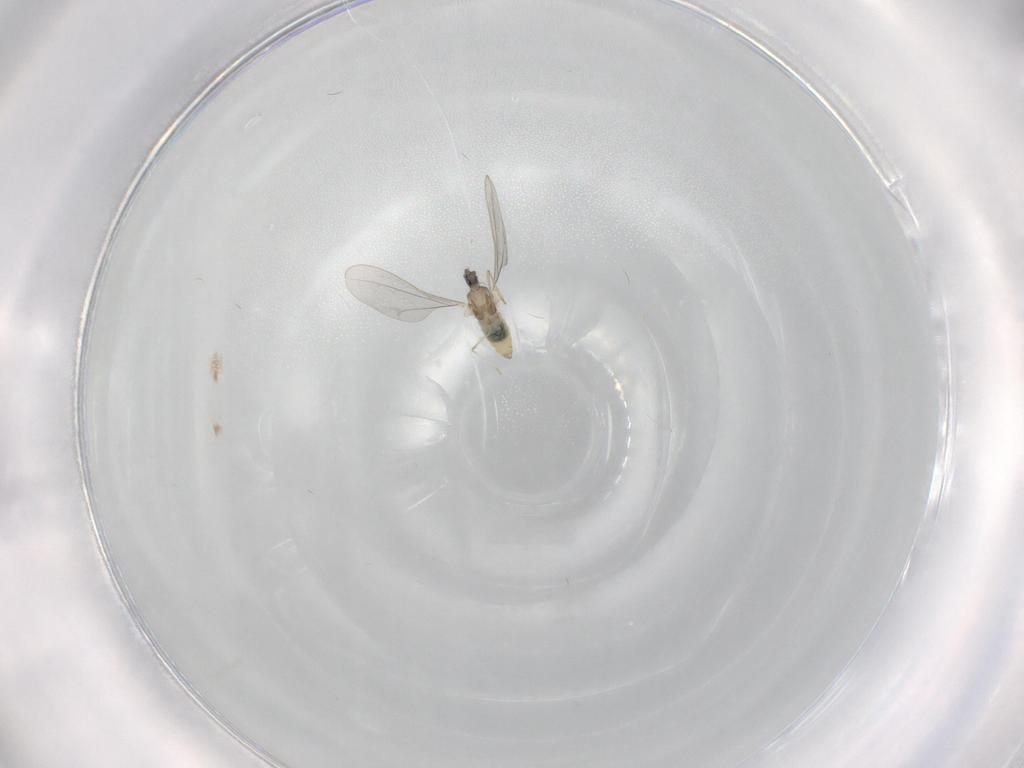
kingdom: Animalia
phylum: Arthropoda
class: Insecta
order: Diptera
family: Cecidomyiidae
